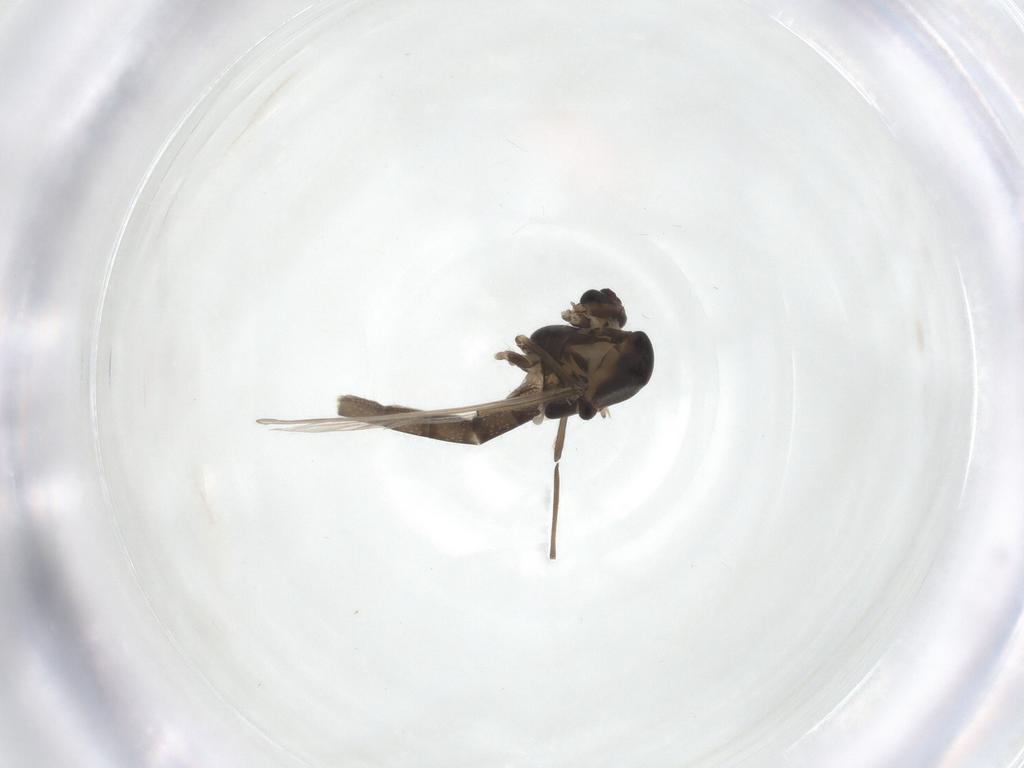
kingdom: Animalia
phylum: Arthropoda
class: Insecta
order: Diptera
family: Chironomidae
